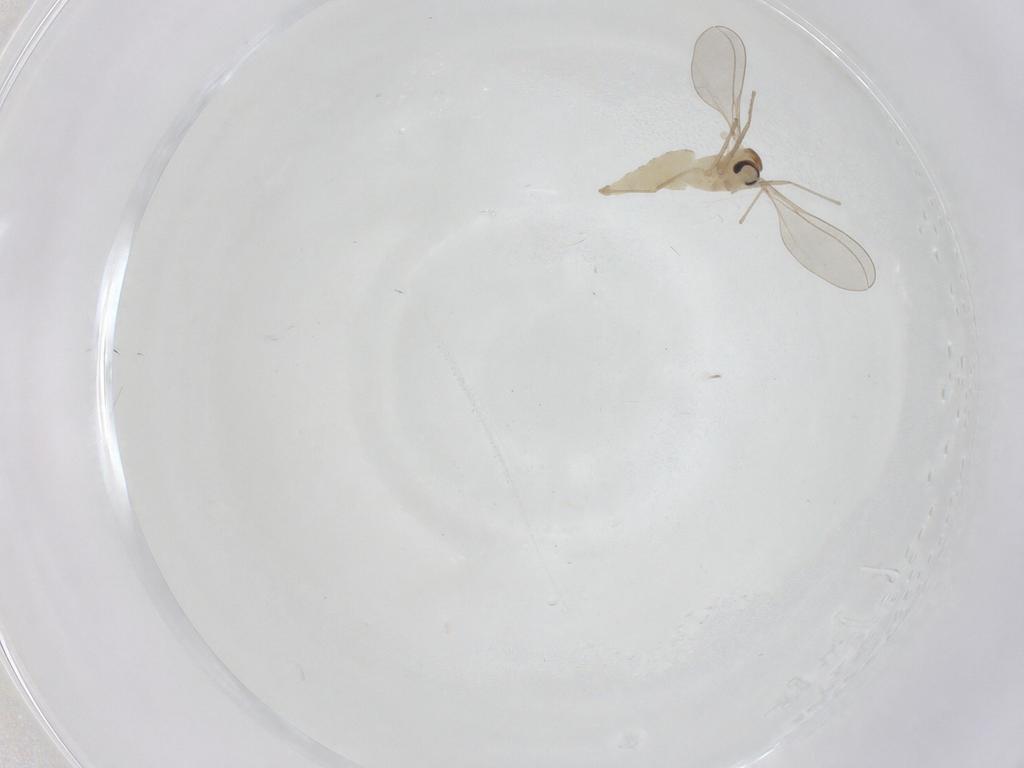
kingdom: Animalia
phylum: Arthropoda
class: Insecta
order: Diptera
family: Cecidomyiidae
